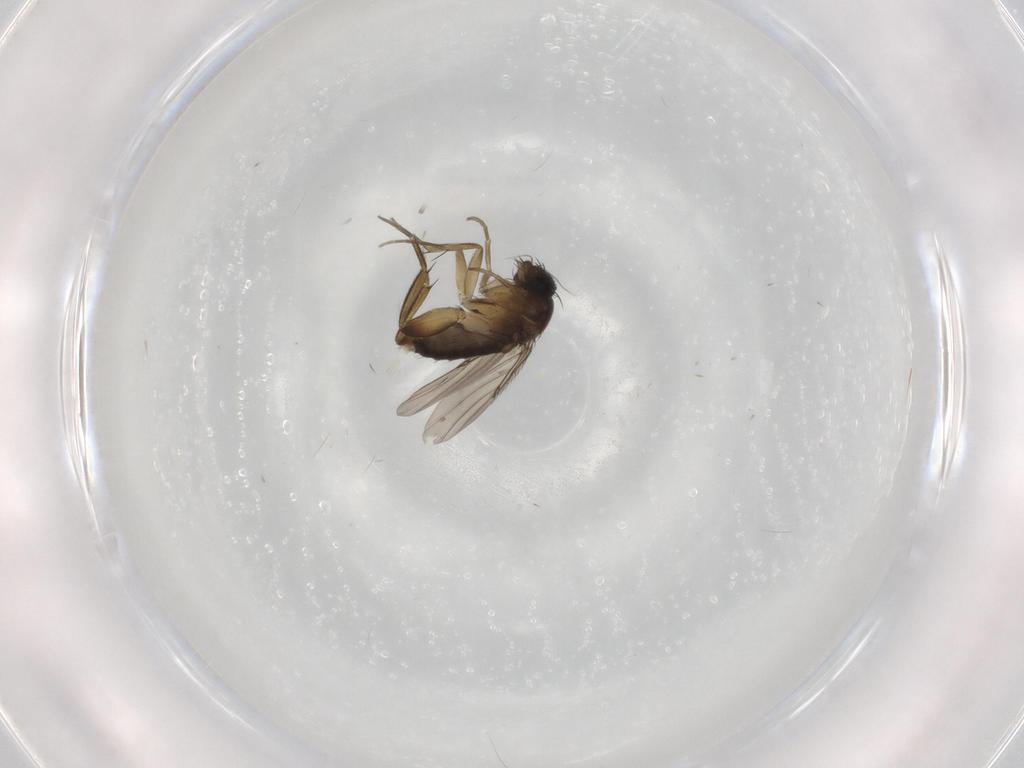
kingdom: Animalia
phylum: Arthropoda
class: Insecta
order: Diptera
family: Phoridae
